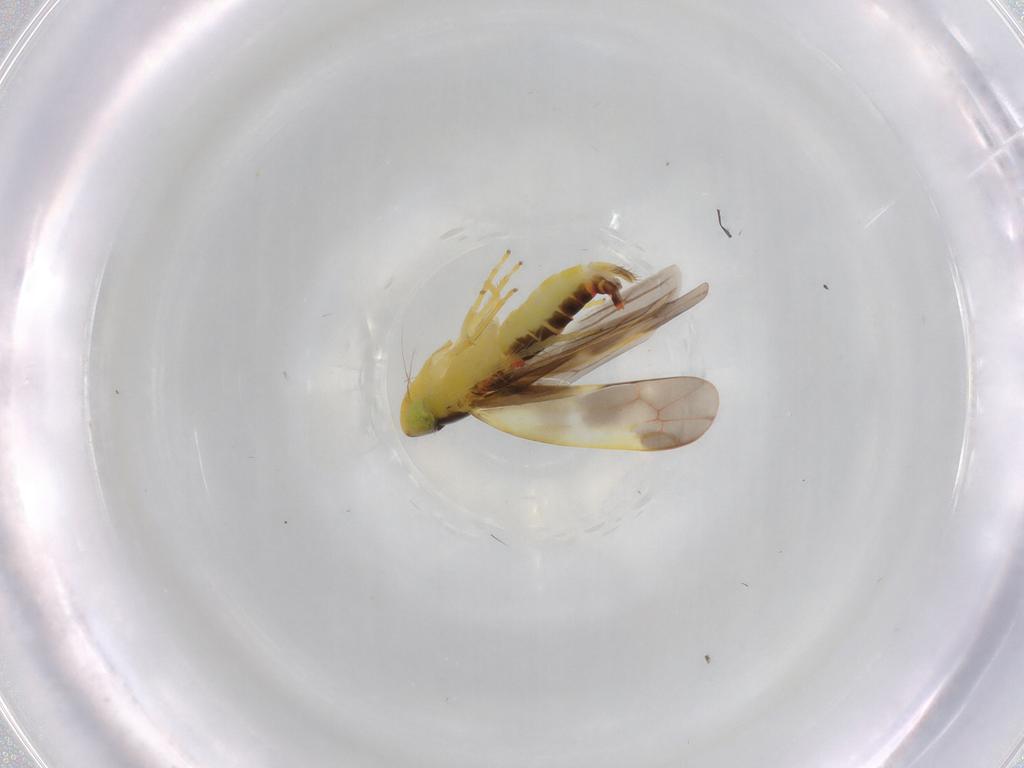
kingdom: Animalia
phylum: Arthropoda
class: Insecta
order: Hemiptera
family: Cicadellidae
